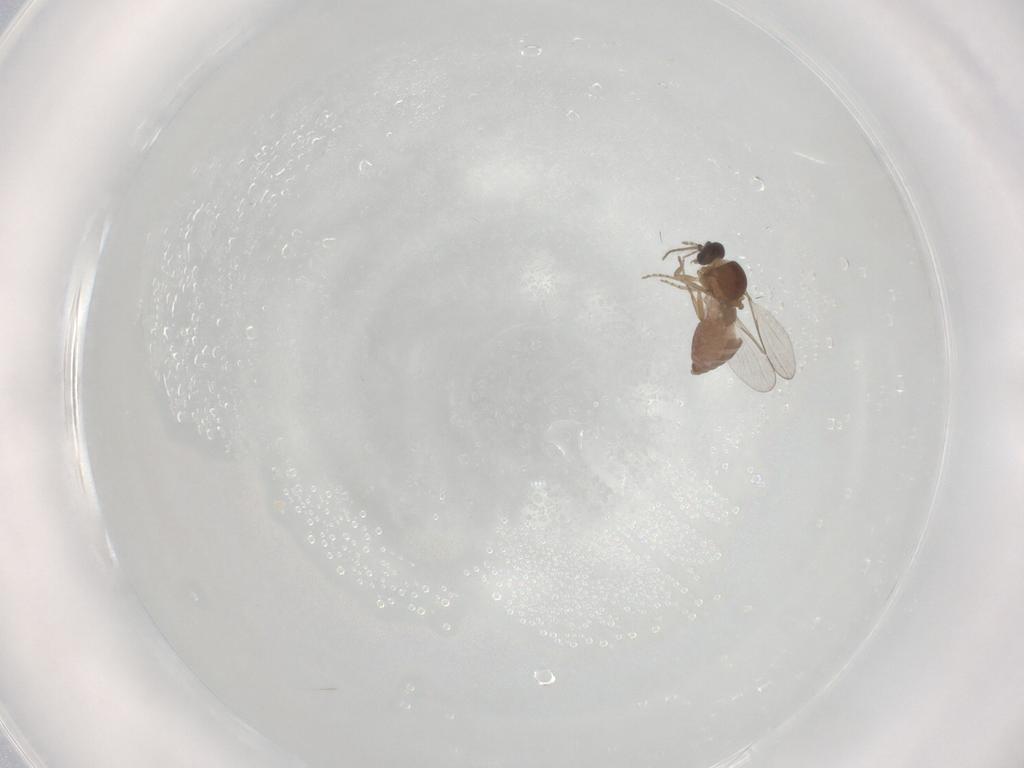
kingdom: Animalia
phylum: Arthropoda
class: Insecta
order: Diptera
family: Ceratopogonidae
